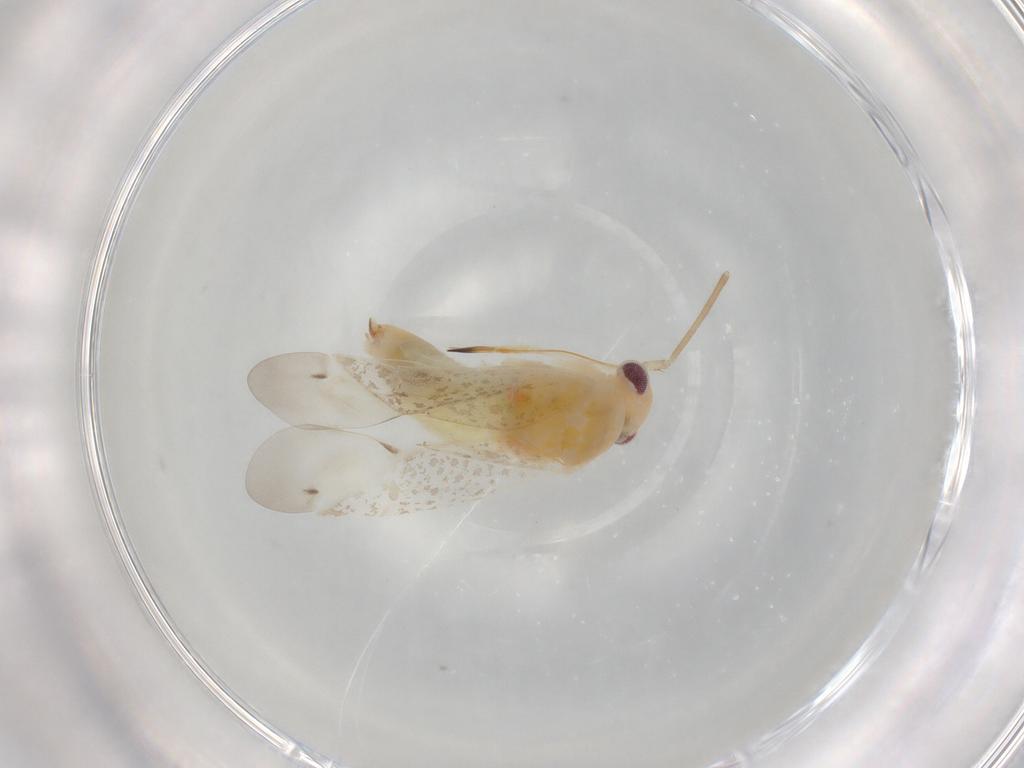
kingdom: Animalia
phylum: Arthropoda
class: Insecta
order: Hemiptera
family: Miridae
